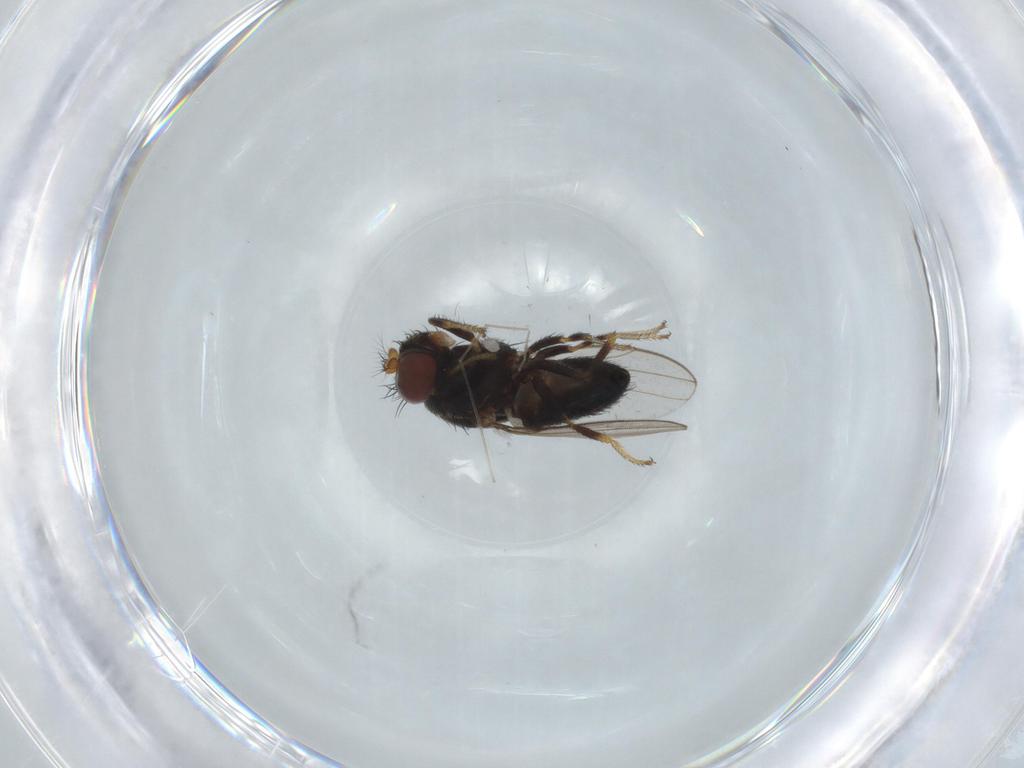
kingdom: Animalia
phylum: Arthropoda
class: Insecta
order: Diptera
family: Ephydridae
